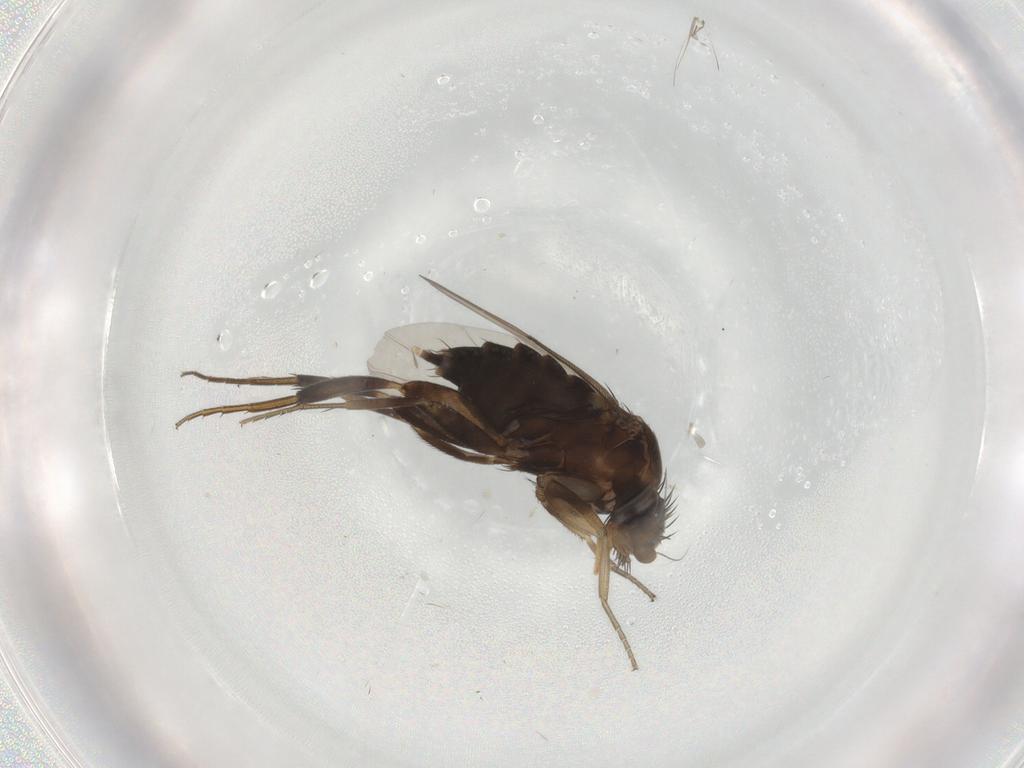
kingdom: Animalia
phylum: Arthropoda
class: Insecta
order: Diptera
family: Phoridae
